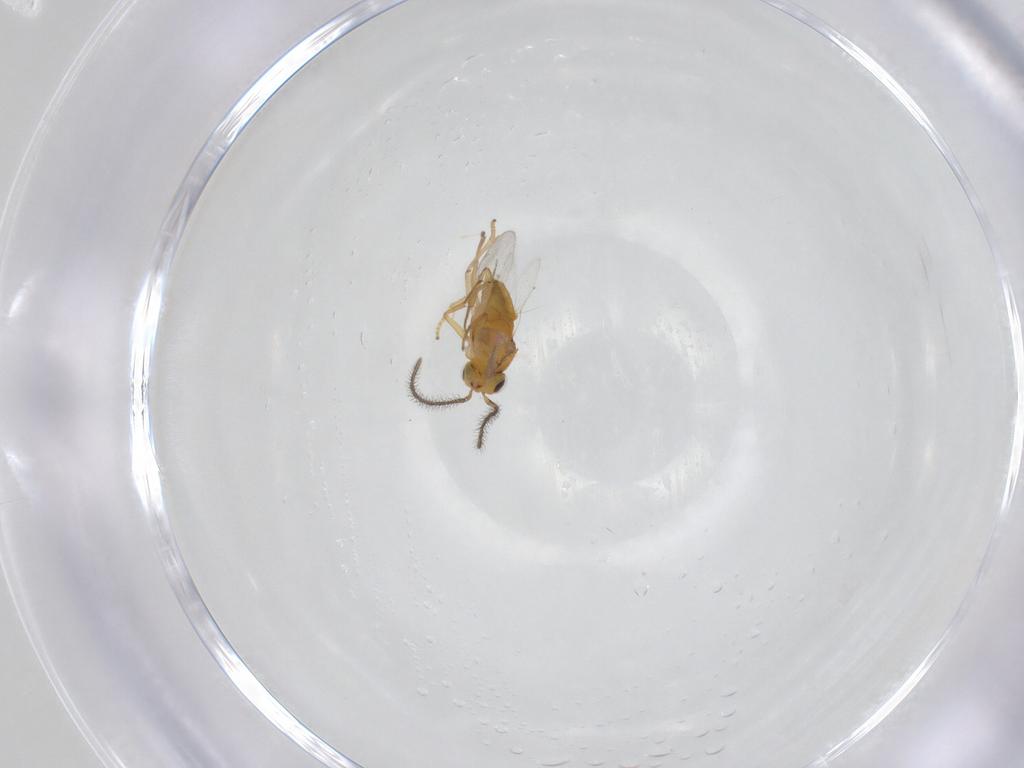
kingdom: Animalia
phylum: Arthropoda
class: Insecta
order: Hymenoptera
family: Encyrtidae
